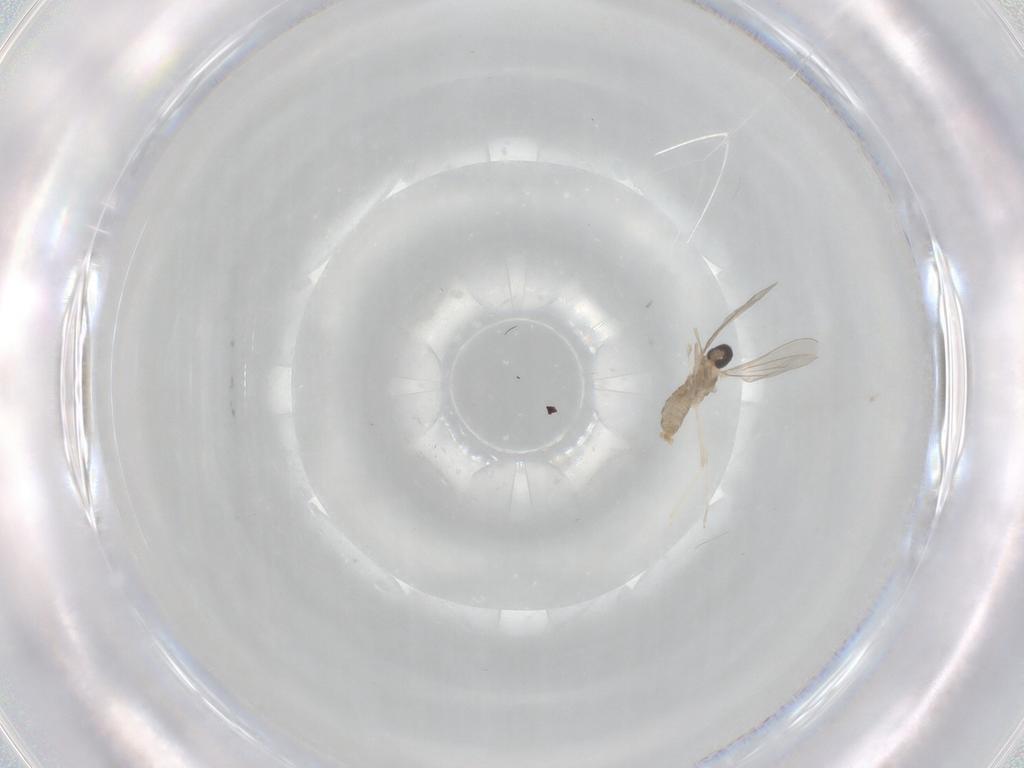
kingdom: Animalia
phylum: Arthropoda
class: Insecta
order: Diptera
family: Cecidomyiidae
